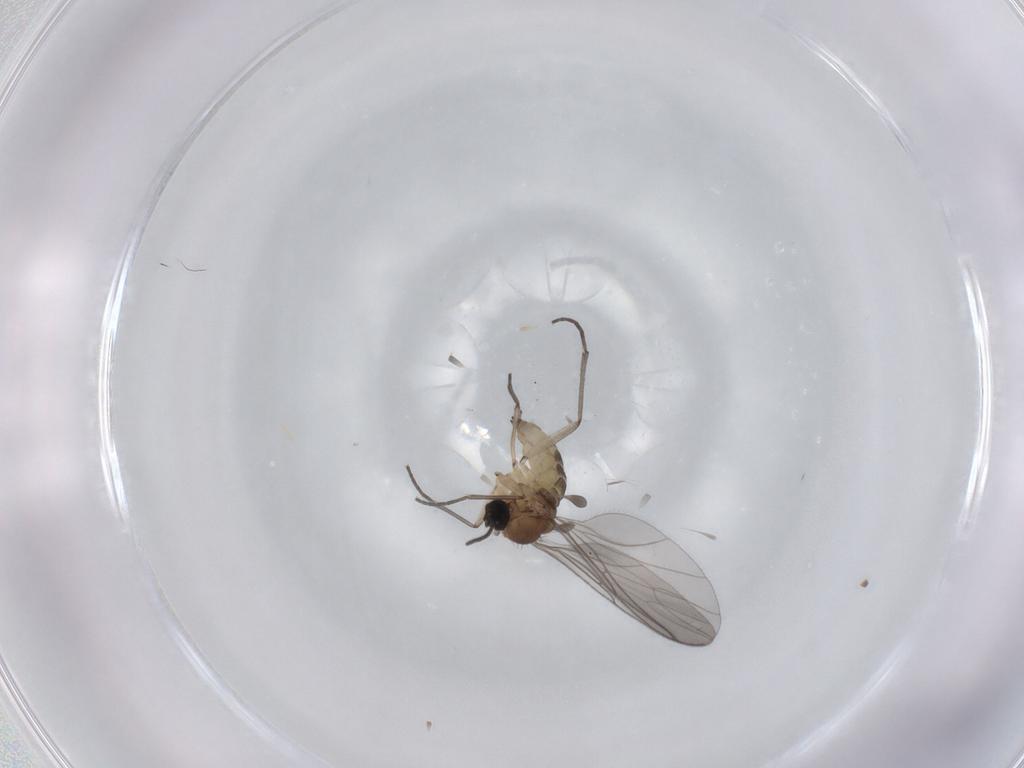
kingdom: Animalia
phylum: Arthropoda
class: Insecta
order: Diptera
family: Sciaridae
